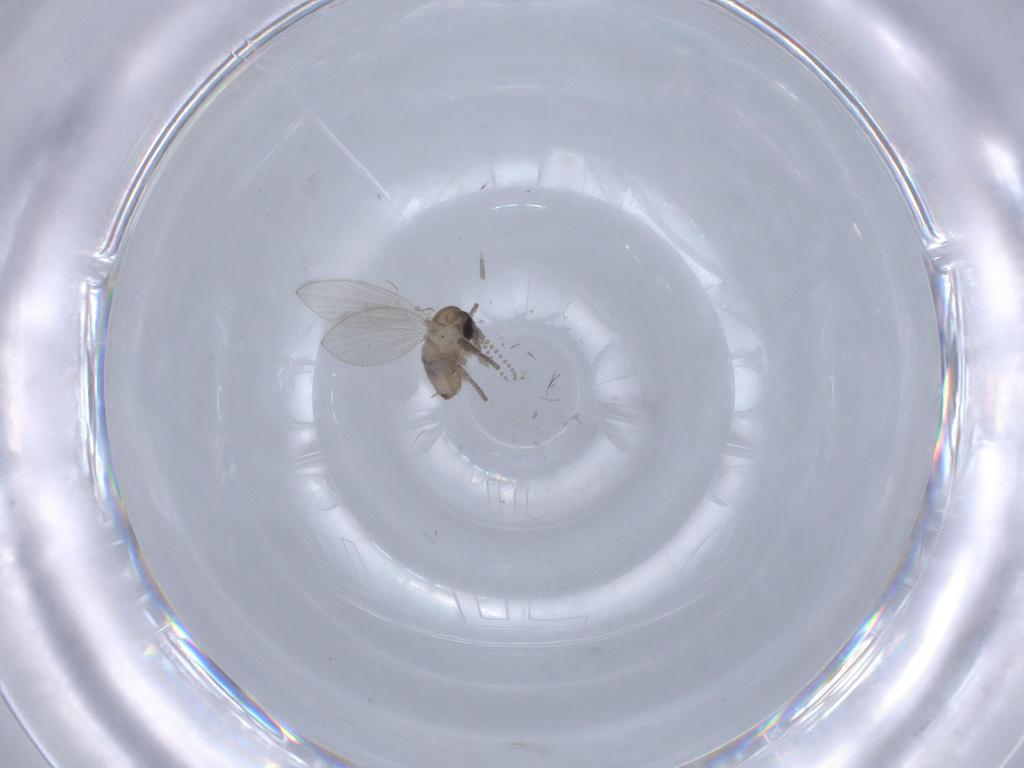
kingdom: Animalia
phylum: Arthropoda
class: Insecta
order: Diptera
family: Ceratopogonidae
